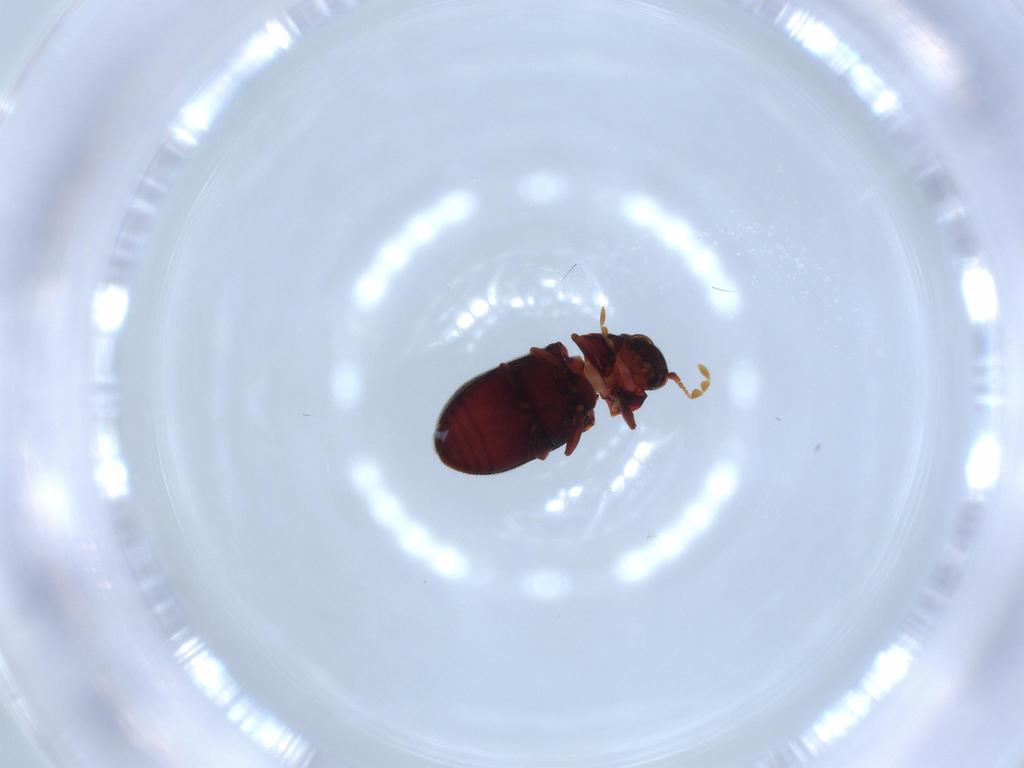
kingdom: Animalia
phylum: Arthropoda
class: Insecta
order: Coleoptera
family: Anobiidae
